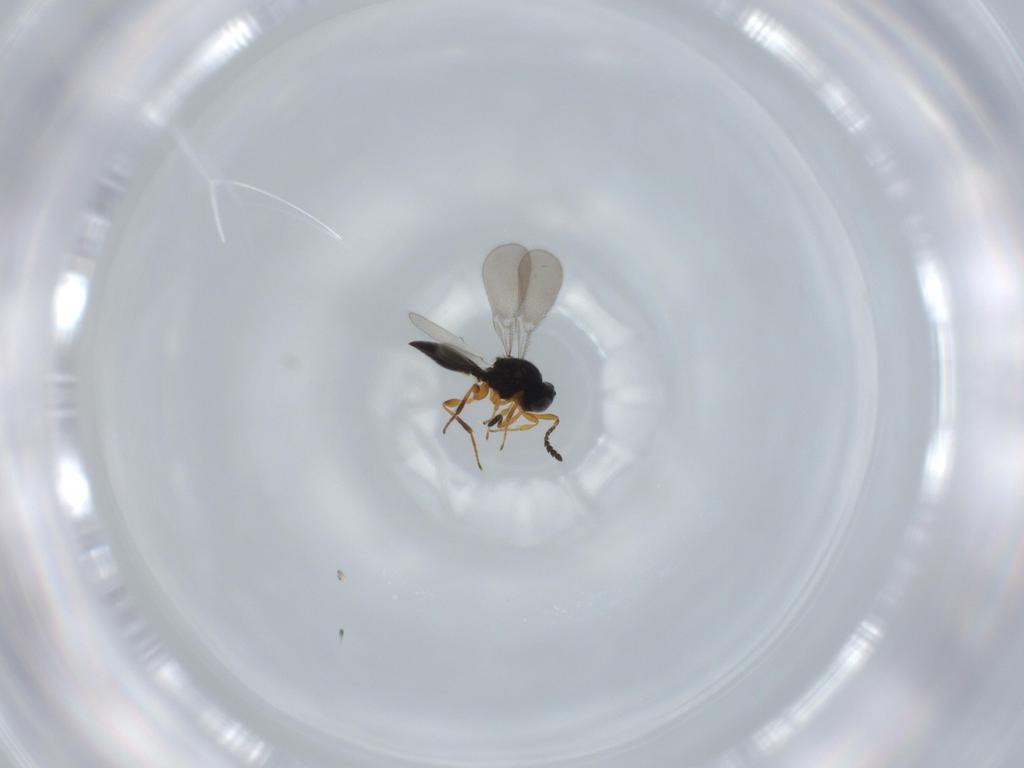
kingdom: Animalia
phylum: Arthropoda
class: Insecta
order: Hymenoptera
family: Platygastridae
